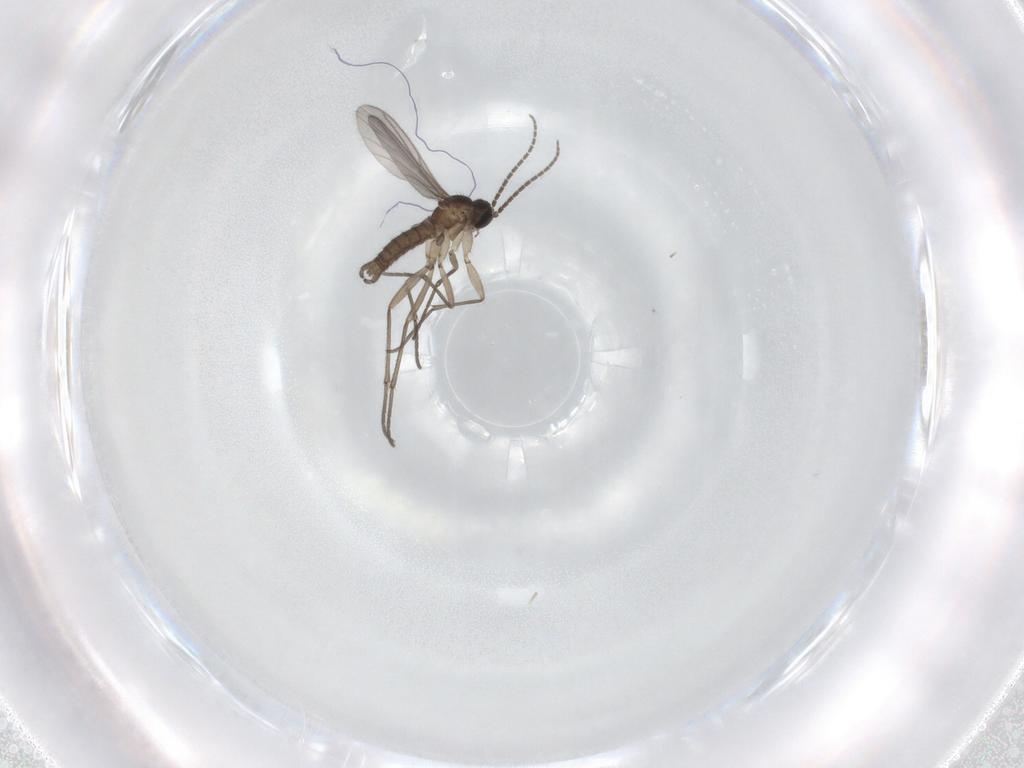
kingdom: Animalia
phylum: Arthropoda
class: Insecta
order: Diptera
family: Sciaridae
